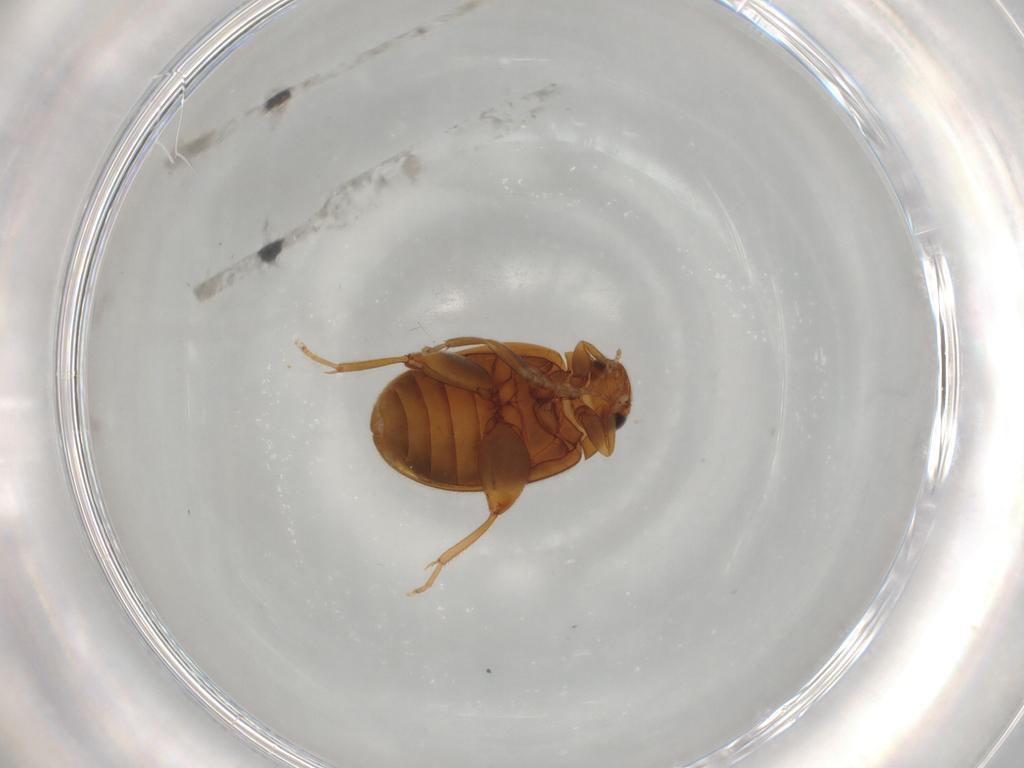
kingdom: Animalia
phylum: Arthropoda
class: Insecta
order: Coleoptera
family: Scirtidae
